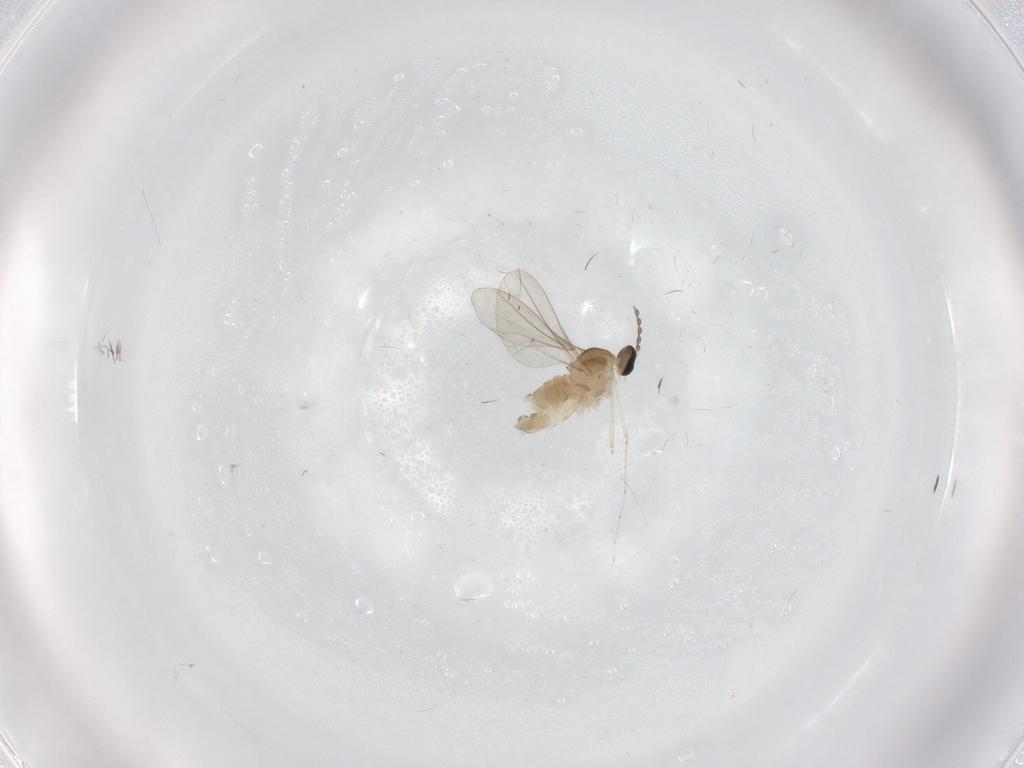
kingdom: Animalia
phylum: Arthropoda
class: Insecta
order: Diptera
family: Cecidomyiidae
